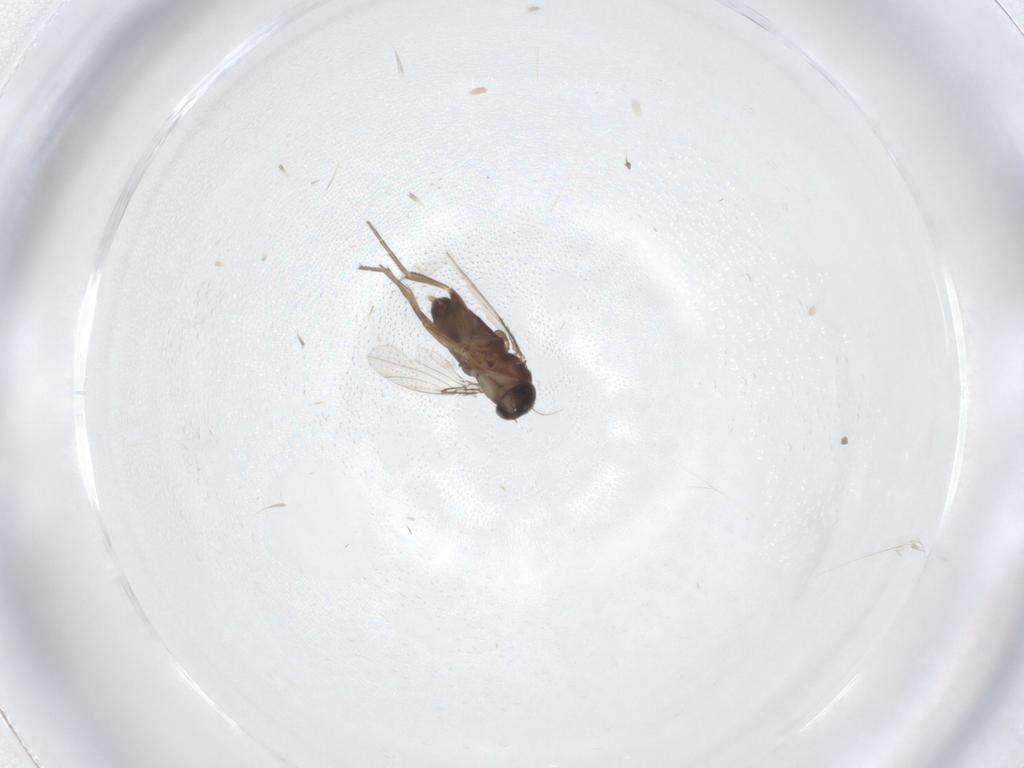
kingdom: Animalia
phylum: Arthropoda
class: Insecta
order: Diptera
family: Phoridae
